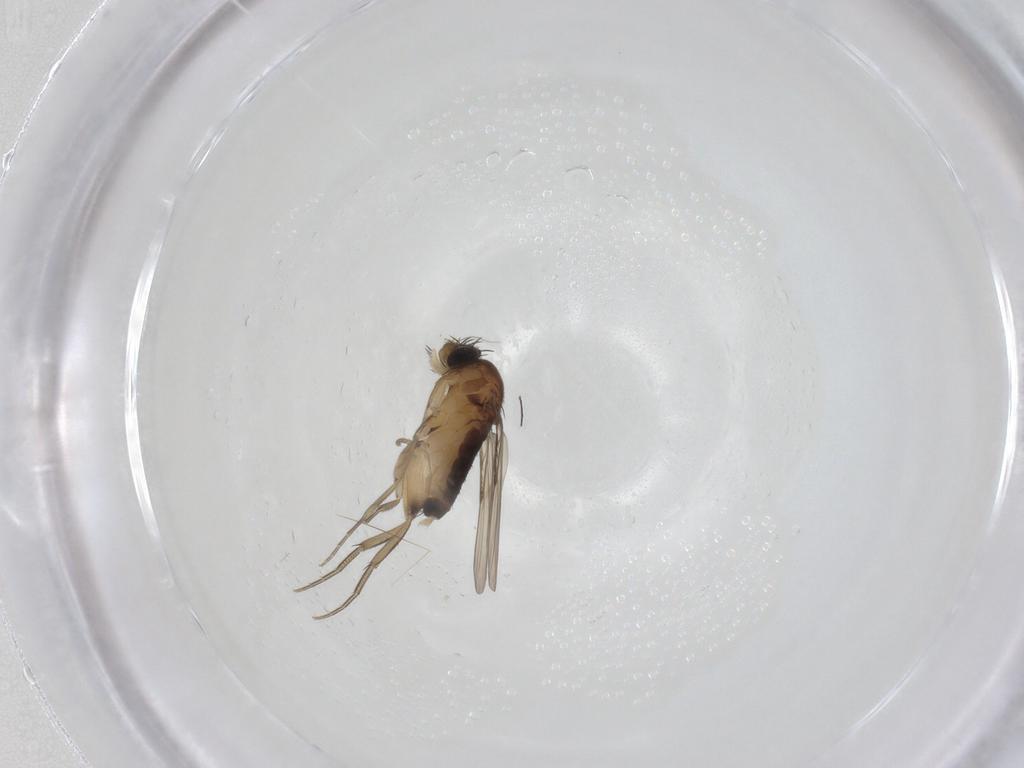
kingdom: Animalia
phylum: Arthropoda
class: Insecta
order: Diptera
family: Phoridae
